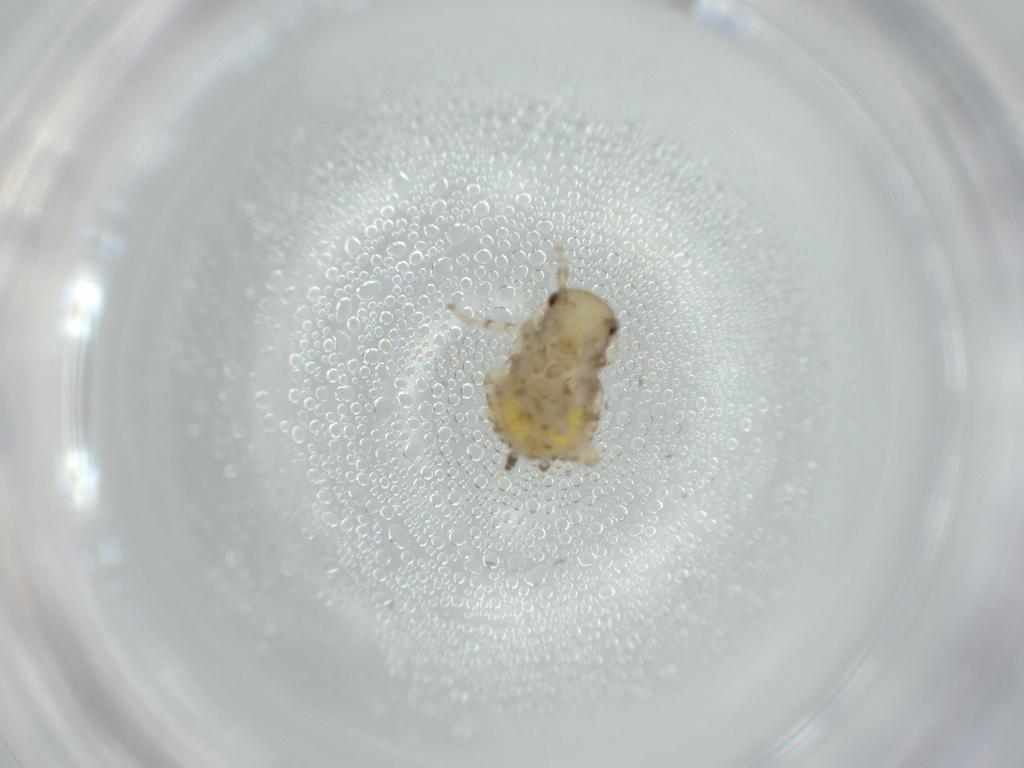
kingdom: Animalia
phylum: Arthropoda
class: Insecta
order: Blattodea
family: Ectobiidae
